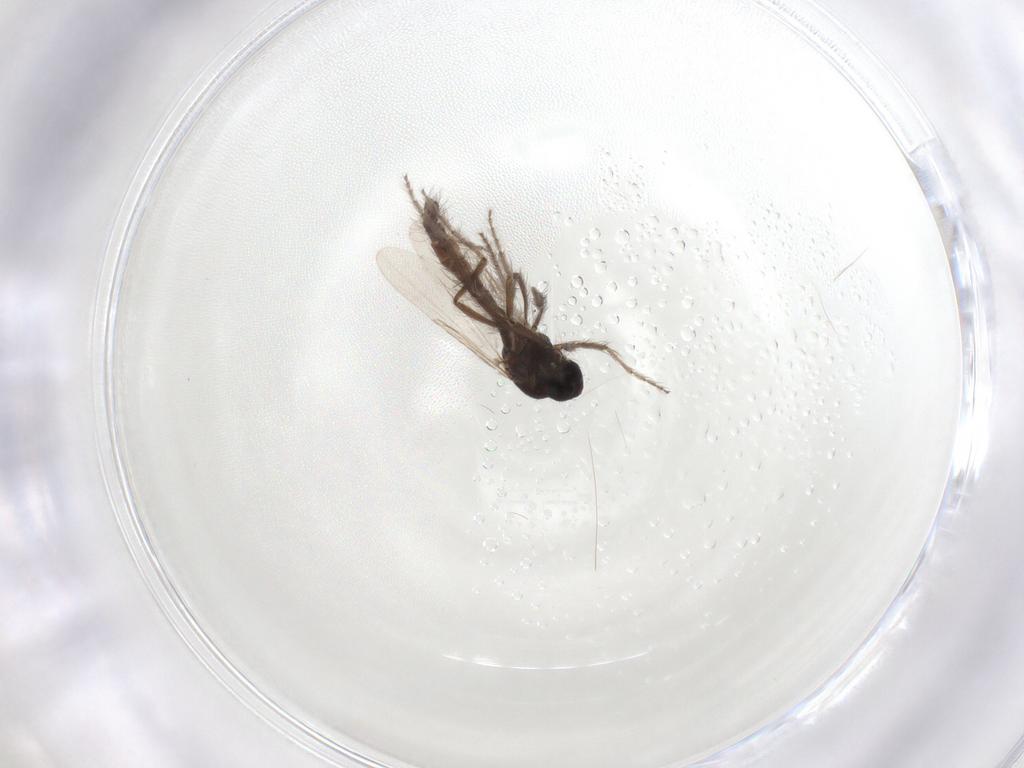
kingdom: Animalia
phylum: Arthropoda
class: Insecta
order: Diptera
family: Ceratopogonidae
